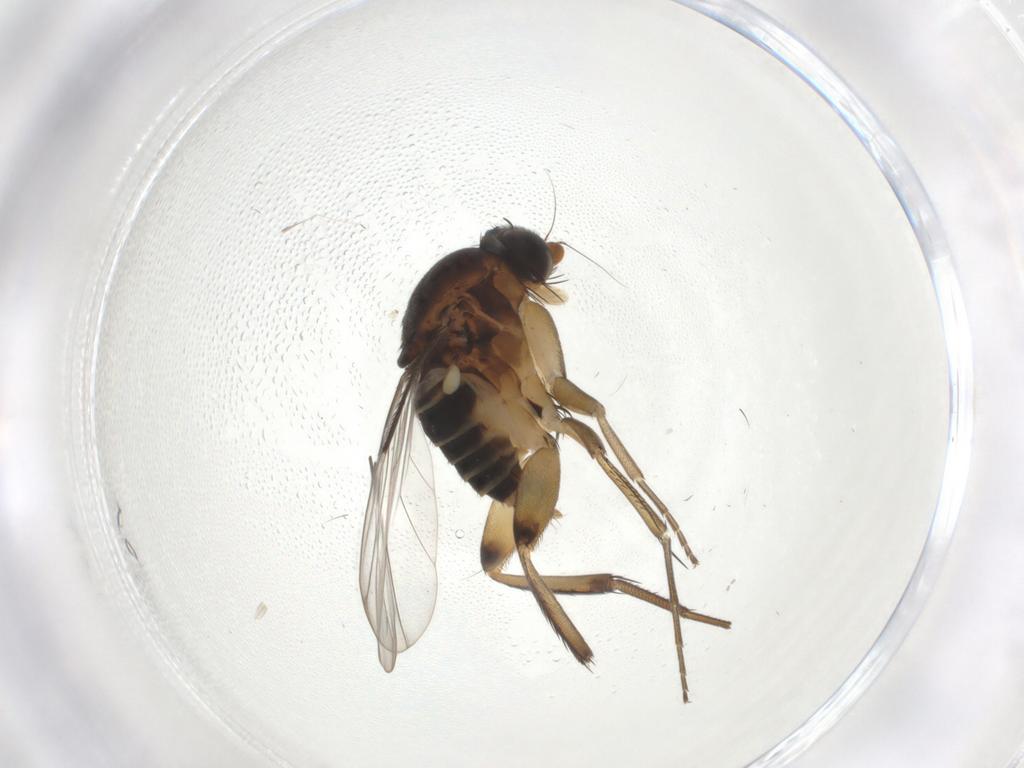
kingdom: Animalia
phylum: Arthropoda
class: Insecta
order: Diptera
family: Phoridae
